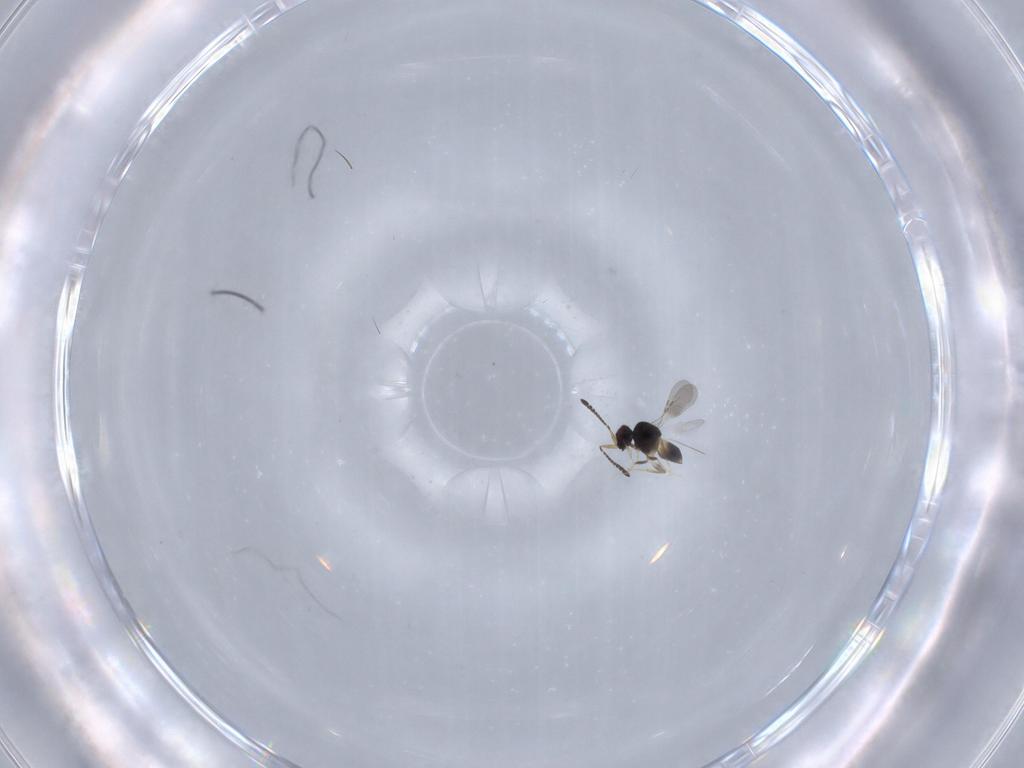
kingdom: Animalia
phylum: Arthropoda
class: Insecta
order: Hymenoptera
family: Ceraphronidae
